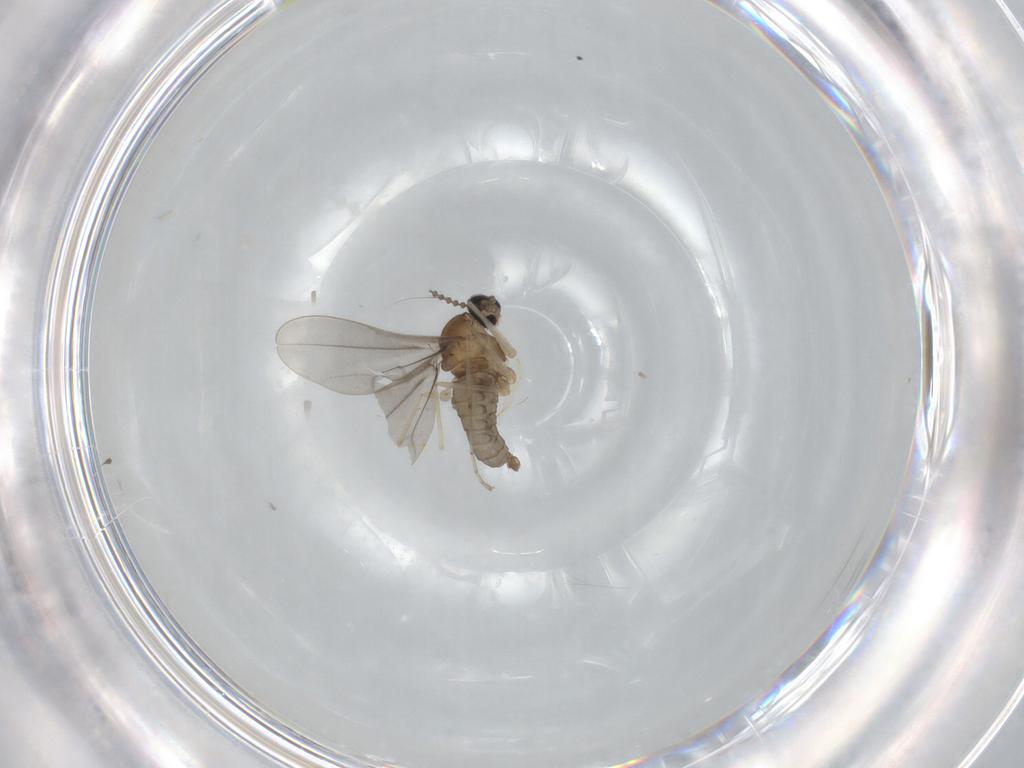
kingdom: Animalia
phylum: Arthropoda
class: Insecta
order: Diptera
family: Cecidomyiidae
